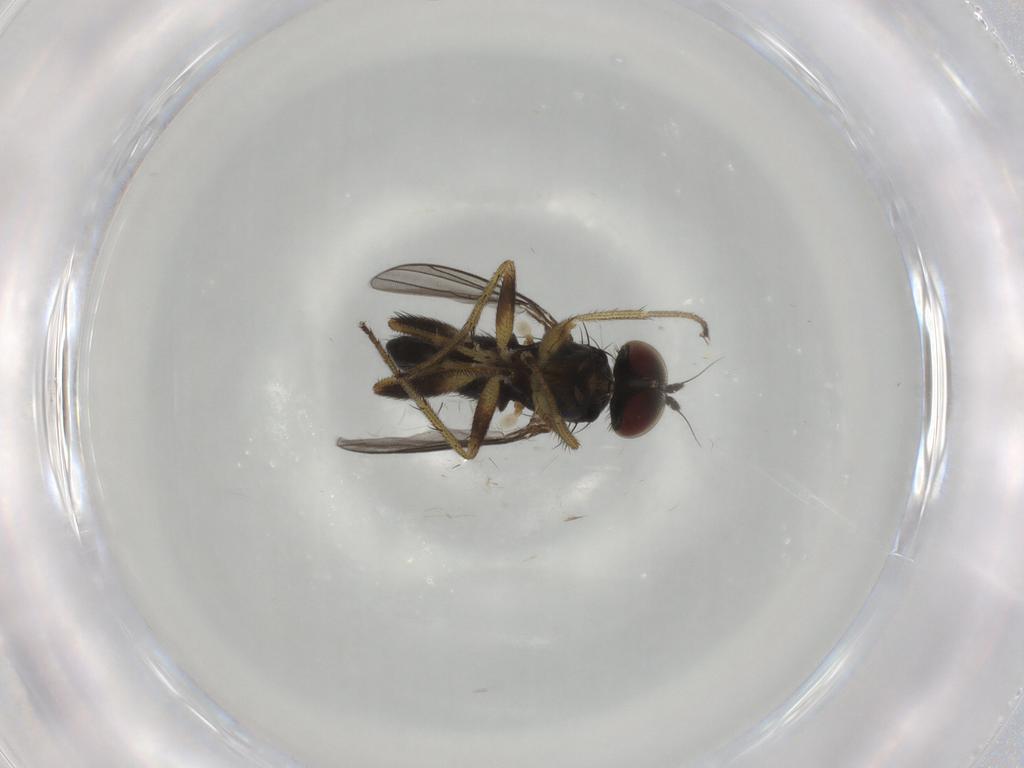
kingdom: Animalia
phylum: Arthropoda
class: Insecta
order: Diptera
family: Dolichopodidae
